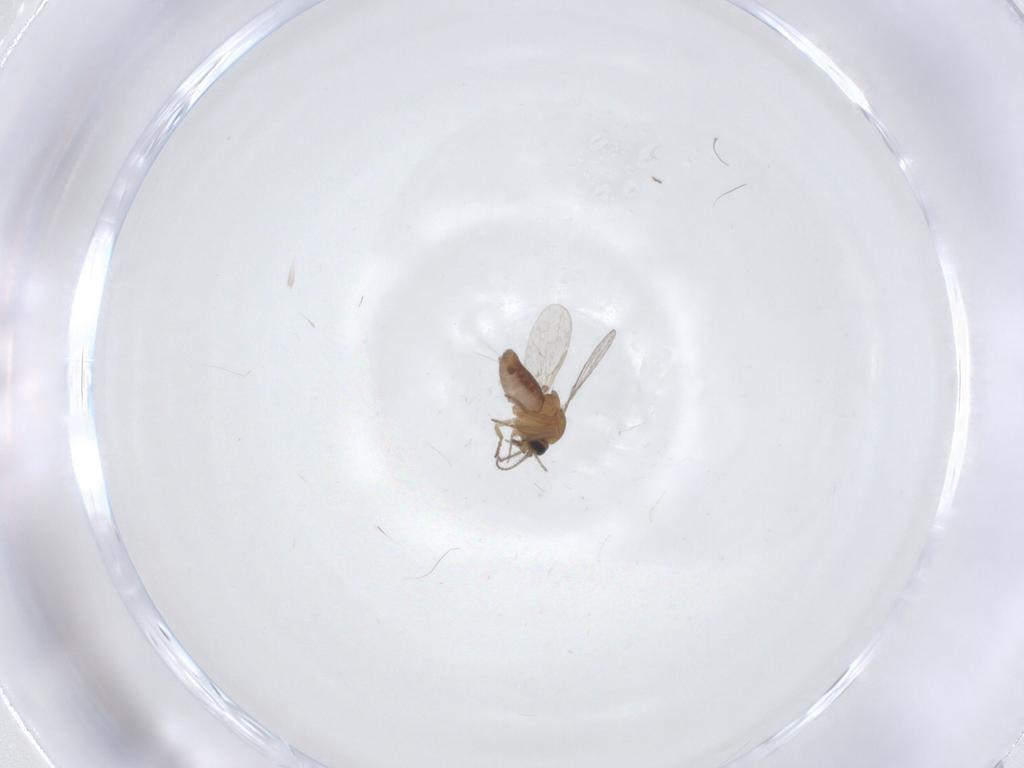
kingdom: Animalia
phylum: Arthropoda
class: Insecta
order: Diptera
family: Ceratopogonidae
